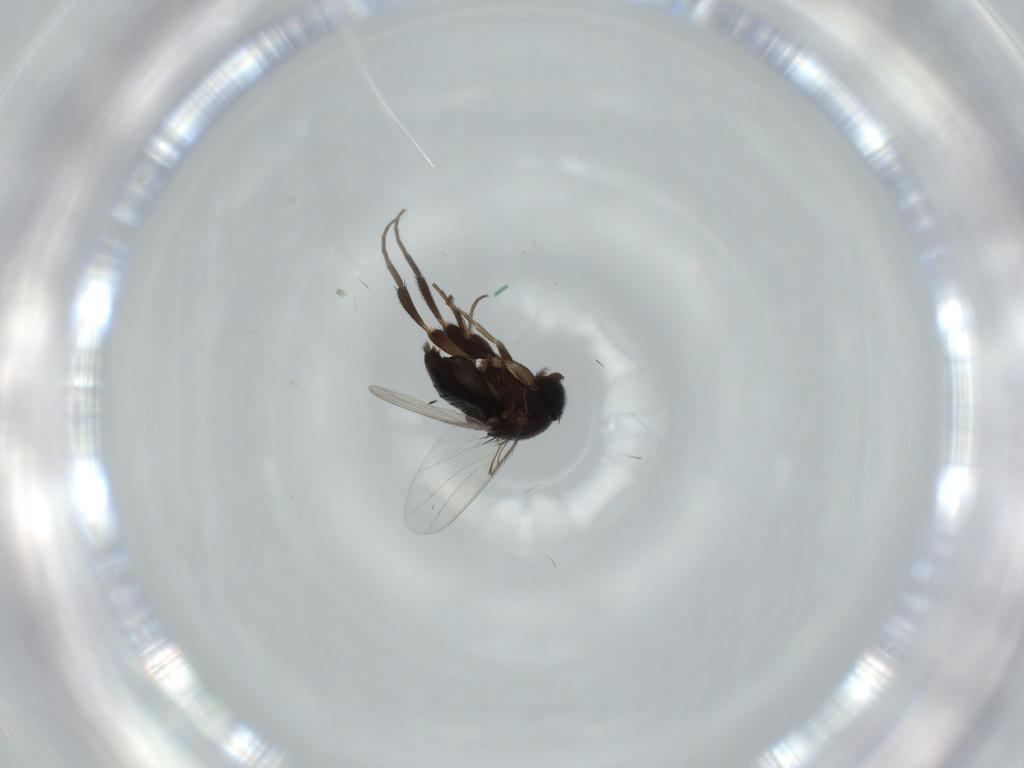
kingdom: Animalia
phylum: Arthropoda
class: Insecta
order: Diptera
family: Phoridae
